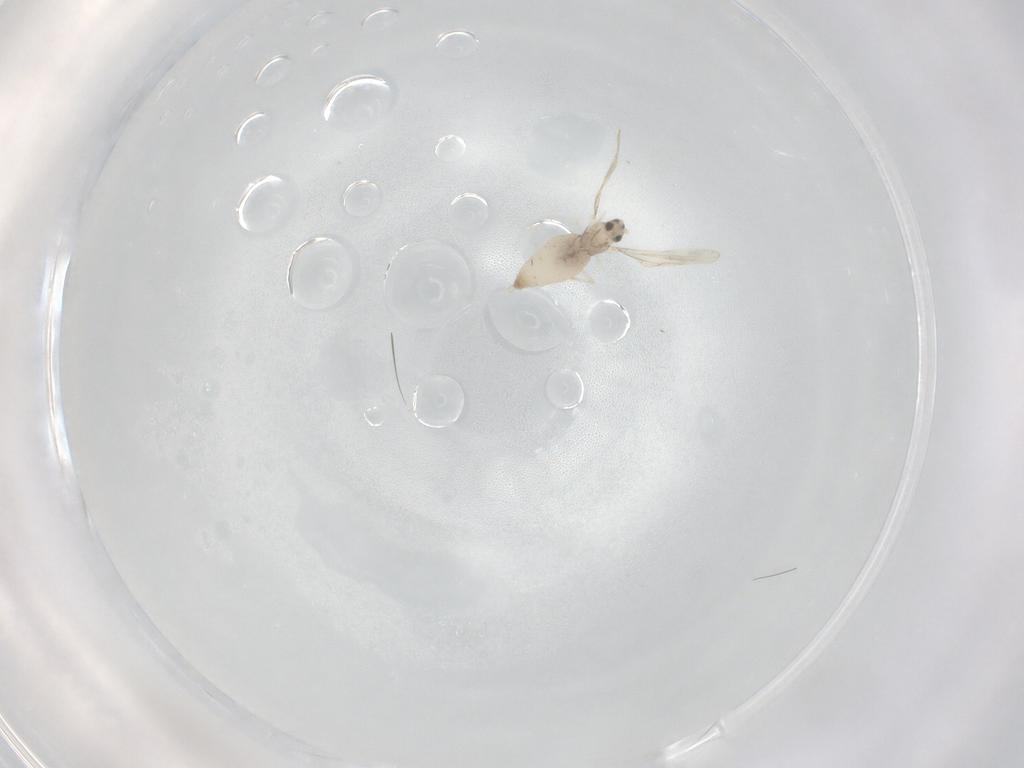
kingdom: Animalia
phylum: Arthropoda
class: Insecta
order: Diptera
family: Cecidomyiidae
